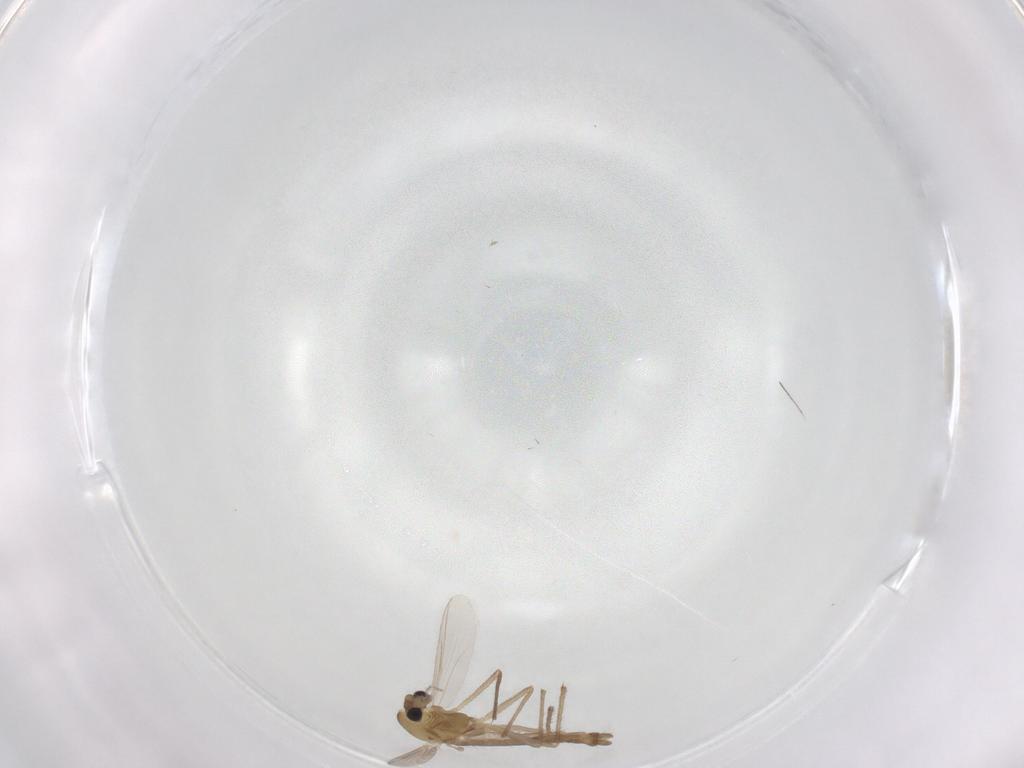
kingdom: Animalia
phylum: Arthropoda
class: Insecta
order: Diptera
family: Chironomidae
